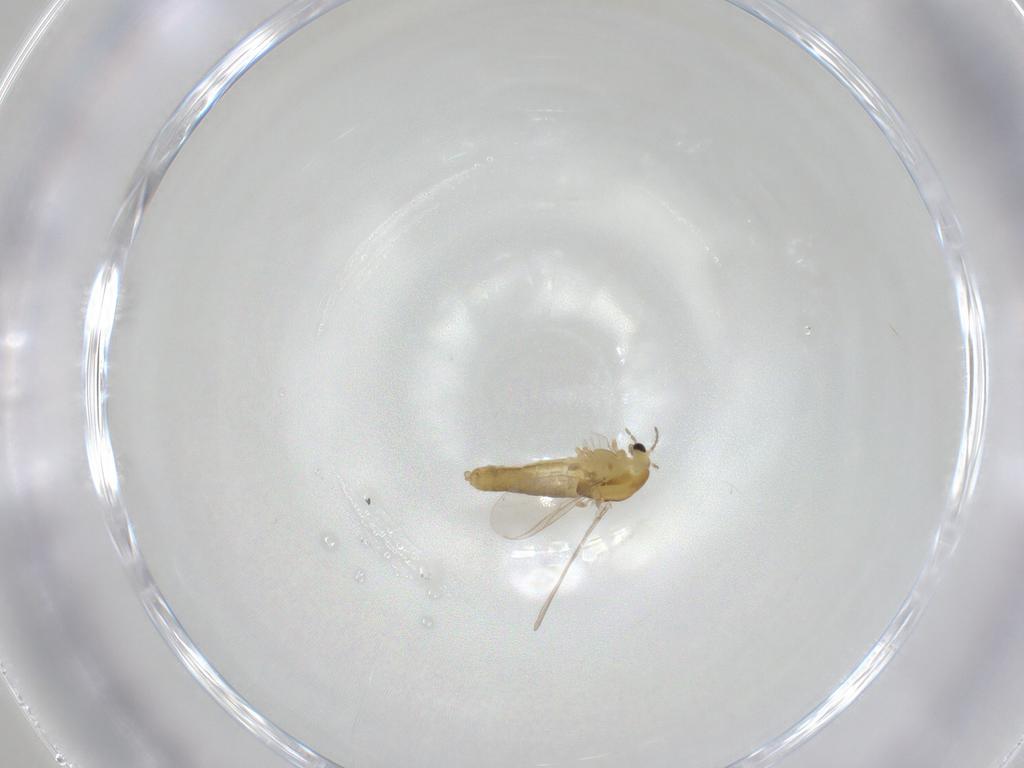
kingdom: Animalia
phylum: Arthropoda
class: Insecta
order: Diptera
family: Chironomidae
